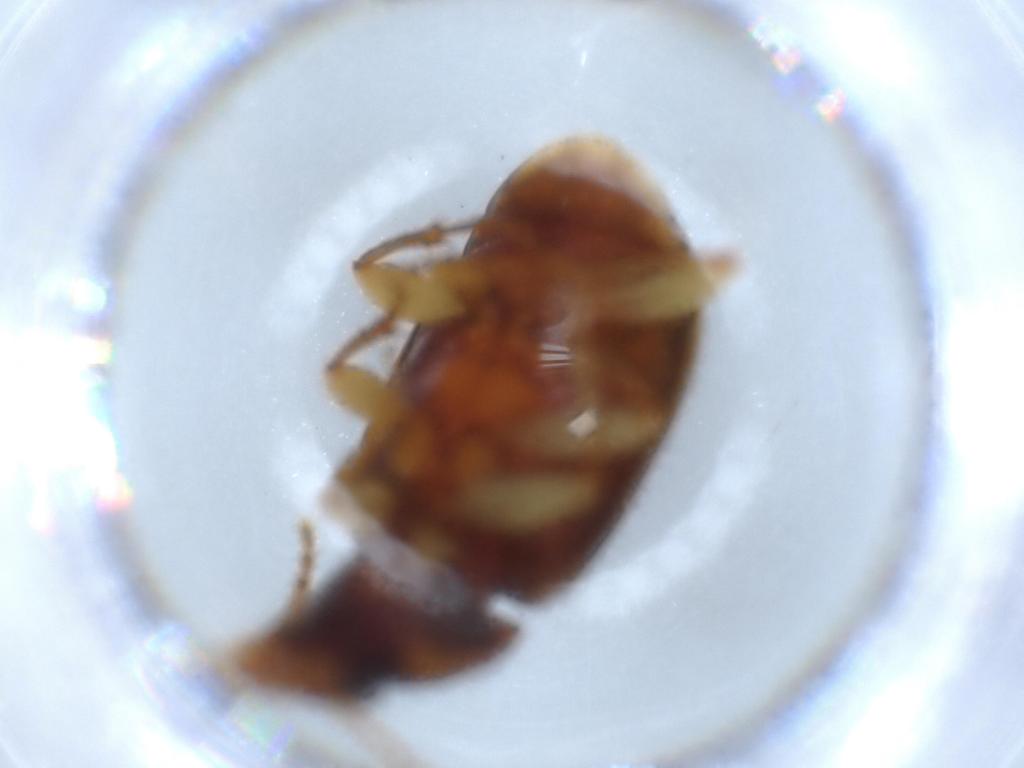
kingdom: Animalia
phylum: Arthropoda
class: Insecta
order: Coleoptera
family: Carabidae
